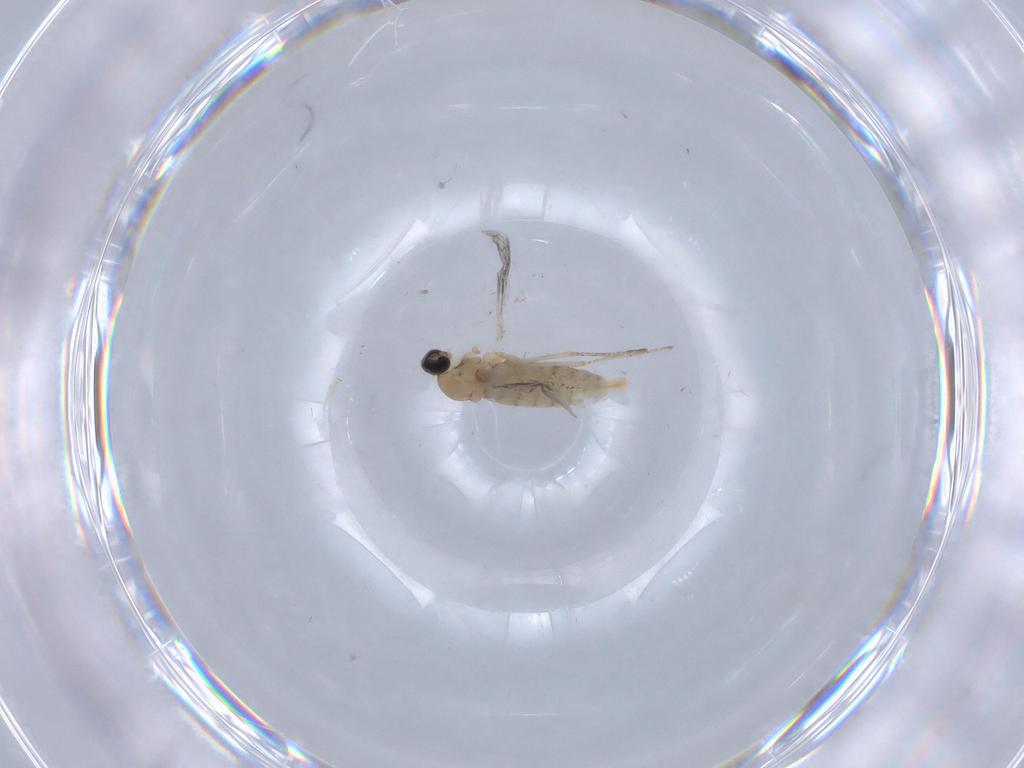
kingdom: Animalia
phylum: Arthropoda
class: Insecta
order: Diptera
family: Cecidomyiidae
